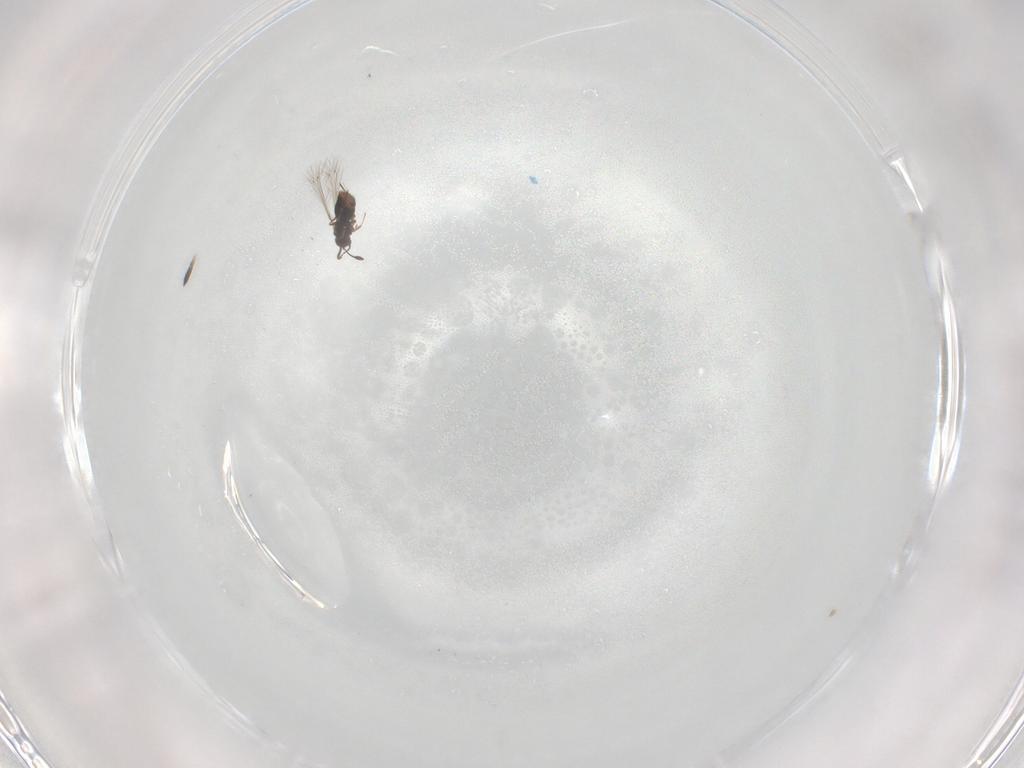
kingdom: Animalia
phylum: Arthropoda
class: Insecta
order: Hymenoptera
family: Mymaridae
